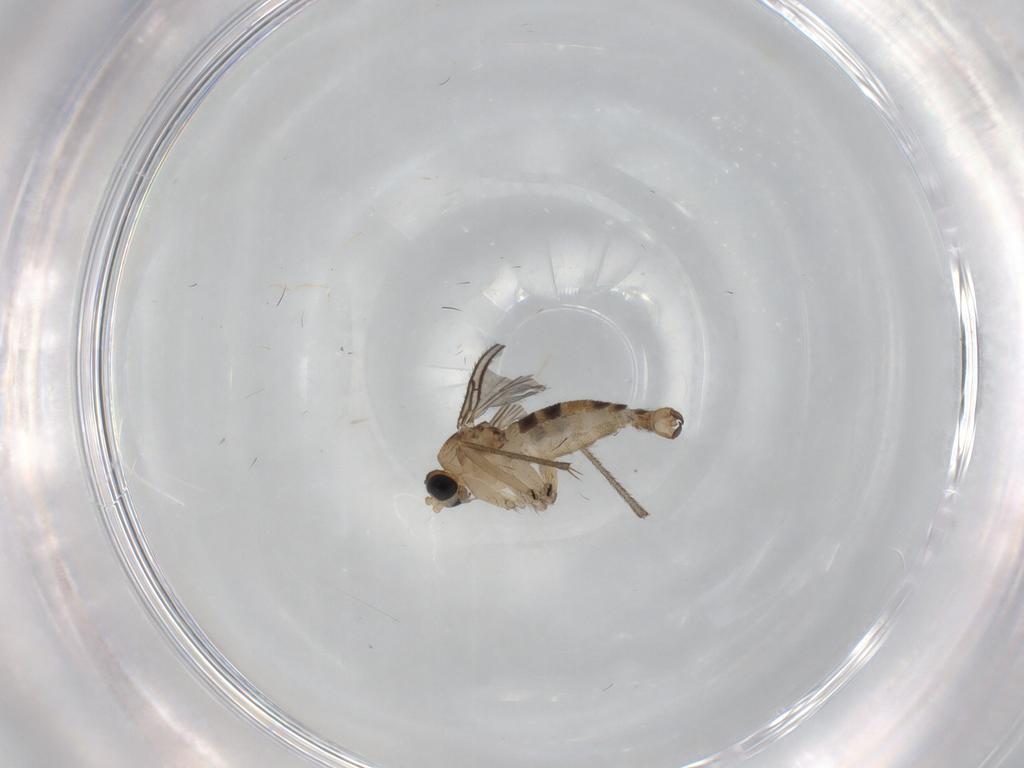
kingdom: Animalia
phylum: Arthropoda
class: Insecta
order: Diptera
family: Sciaridae
